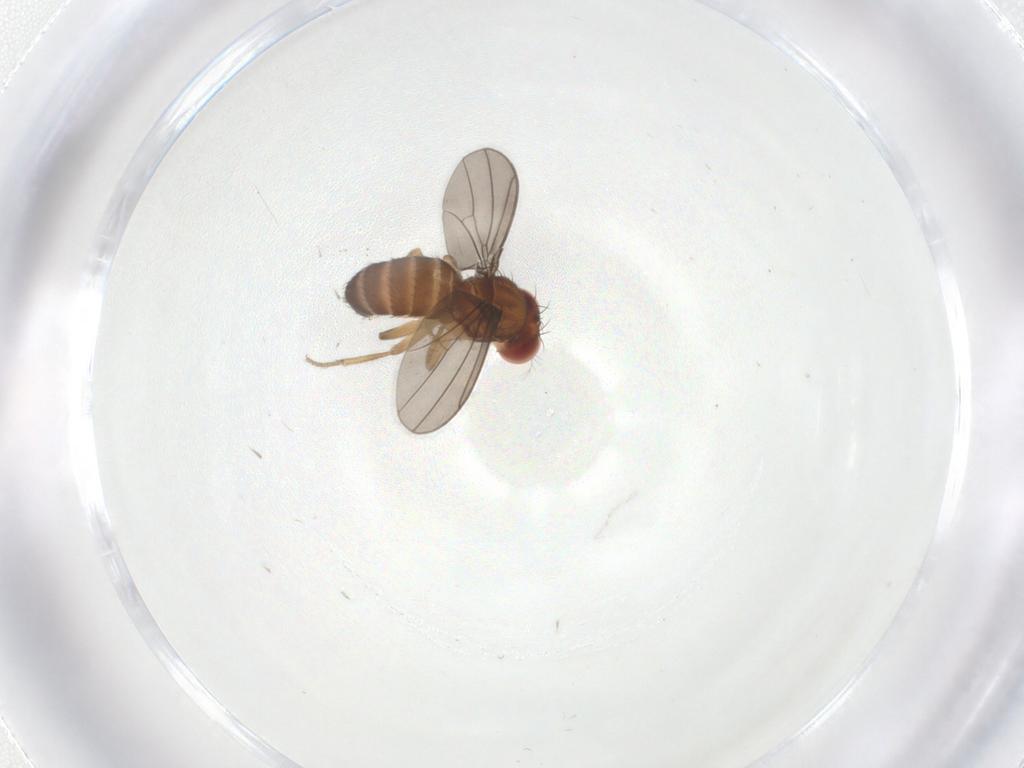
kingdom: Animalia
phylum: Arthropoda
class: Insecta
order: Diptera
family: Drosophilidae
